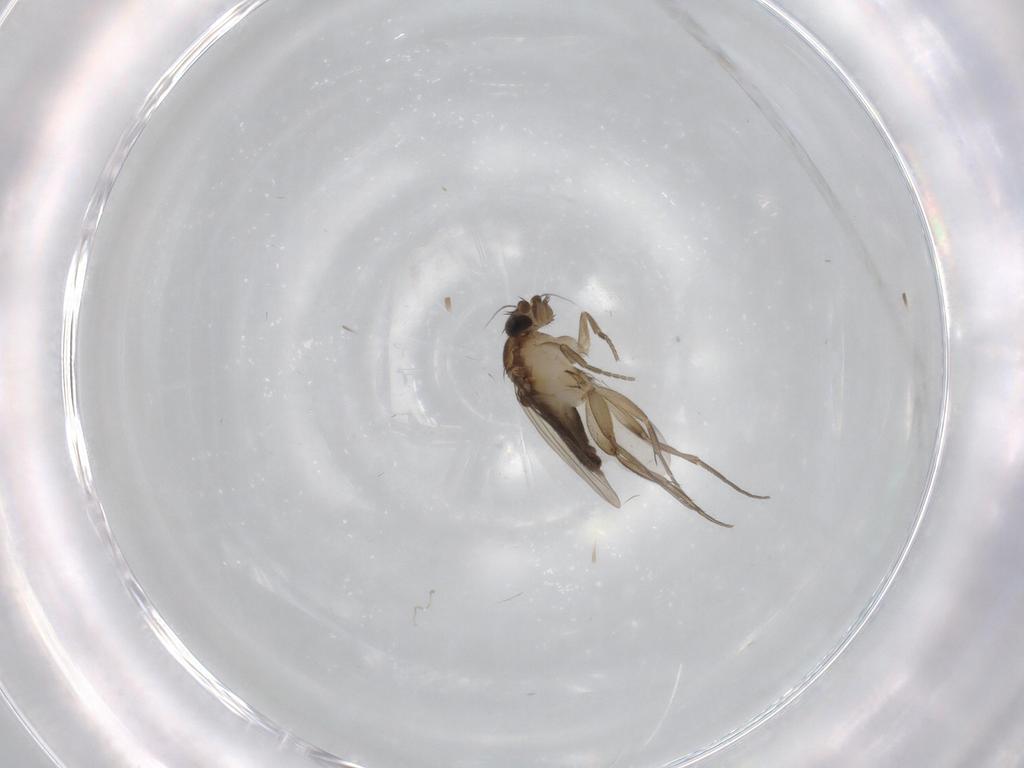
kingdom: Animalia
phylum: Arthropoda
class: Insecta
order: Diptera
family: Phoridae
